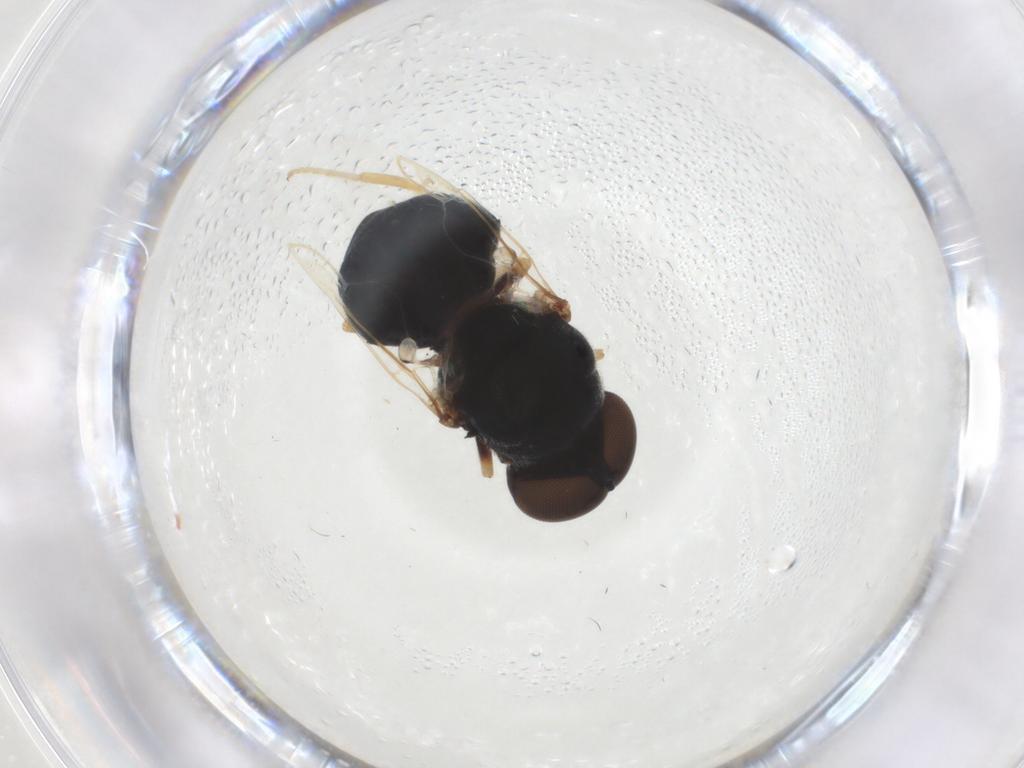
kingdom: Animalia
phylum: Arthropoda
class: Insecta
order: Diptera
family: Stratiomyidae
